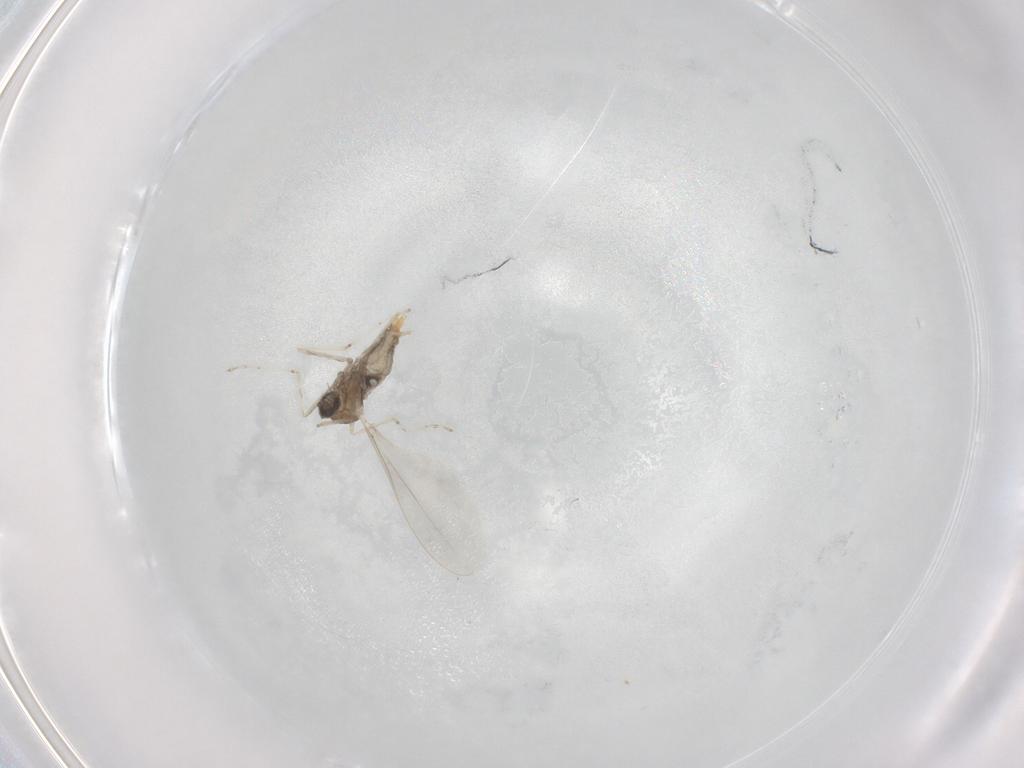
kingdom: Animalia
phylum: Arthropoda
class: Insecta
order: Diptera
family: Cecidomyiidae
